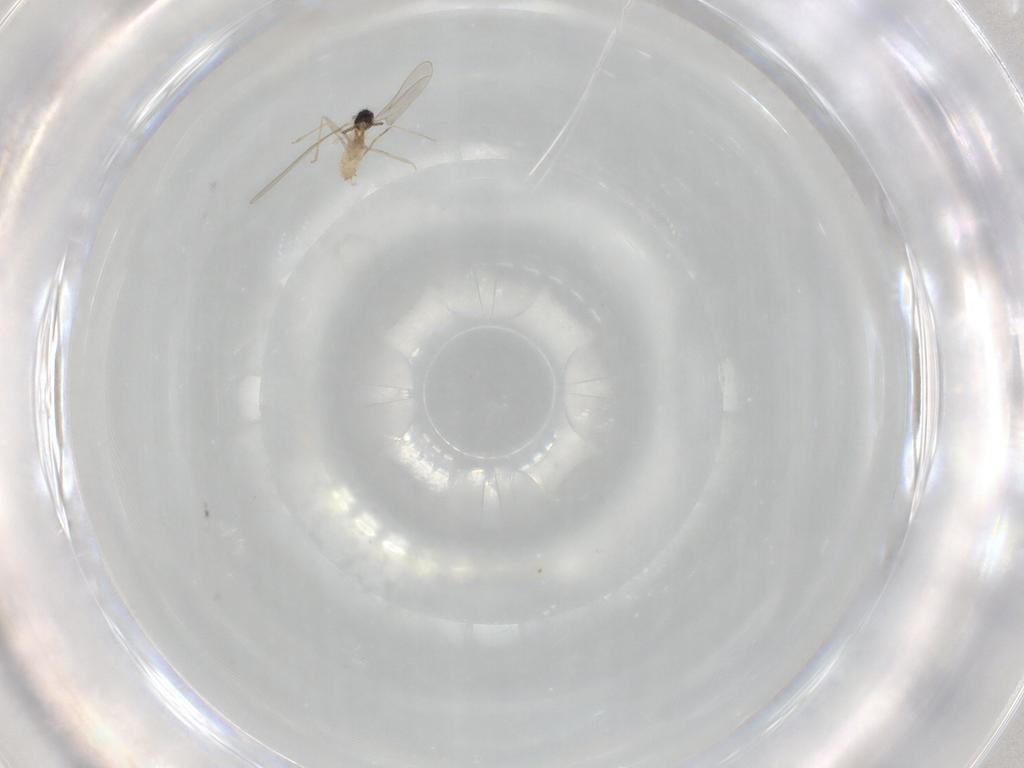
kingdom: Animalia
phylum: Arthropoda
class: Insecta
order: Diptera
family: Cecidomyiidae
